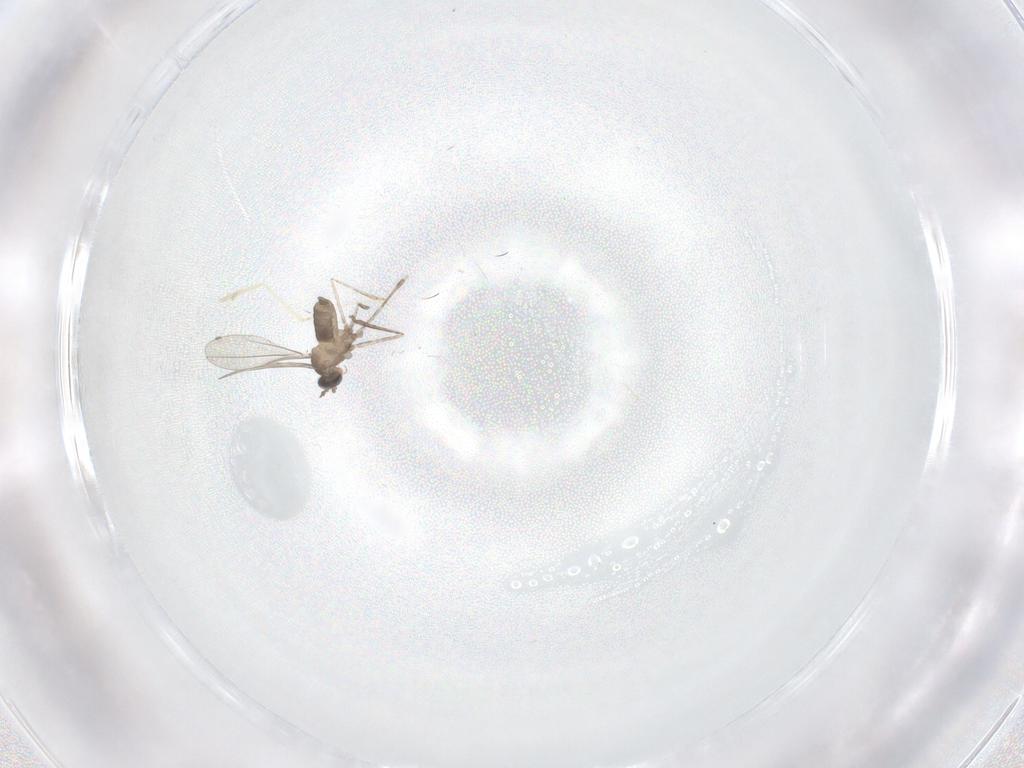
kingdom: Animalia
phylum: Arthropoda
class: Insecta
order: Diptera
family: Cecidomyiidae
